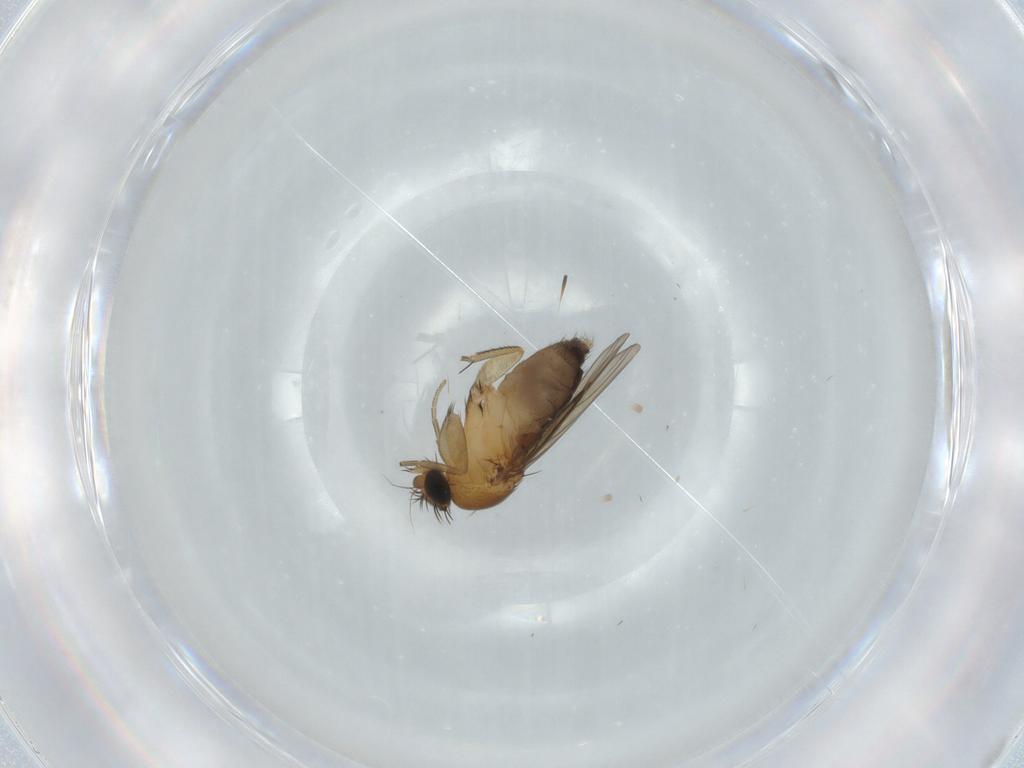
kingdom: Animalia
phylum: Arthropoda
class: Insecta
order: Diptera
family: Phoridae
